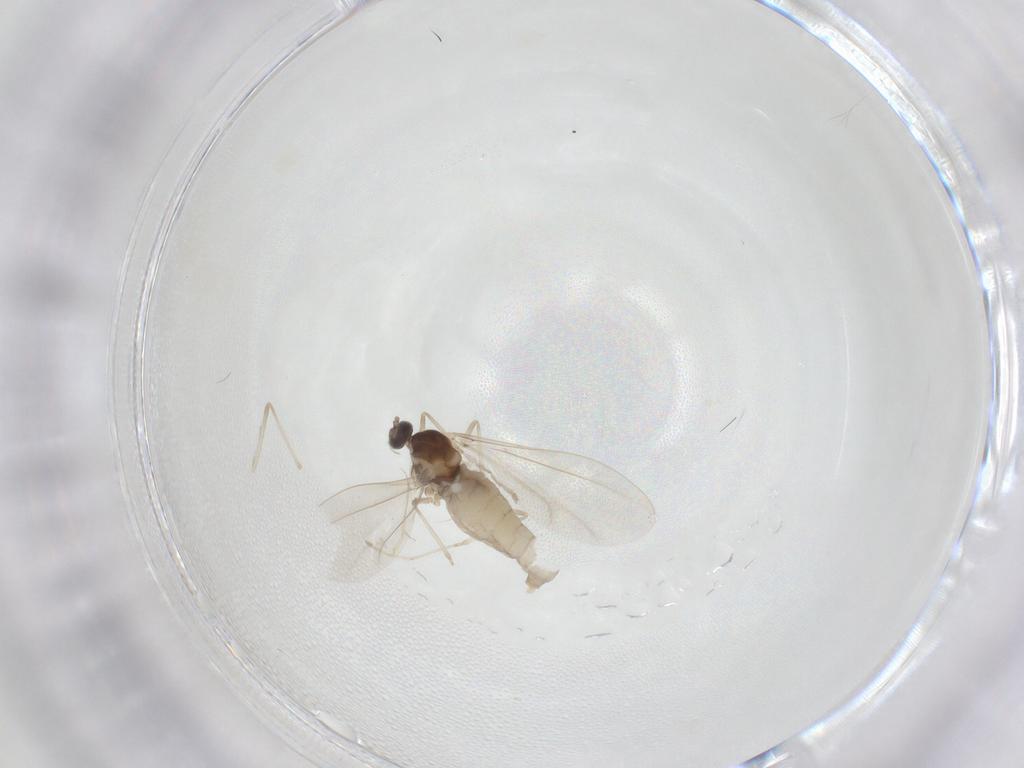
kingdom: Animalia
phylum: Arthropoda
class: Insecta
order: Diptera
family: Cecidomyiidae
